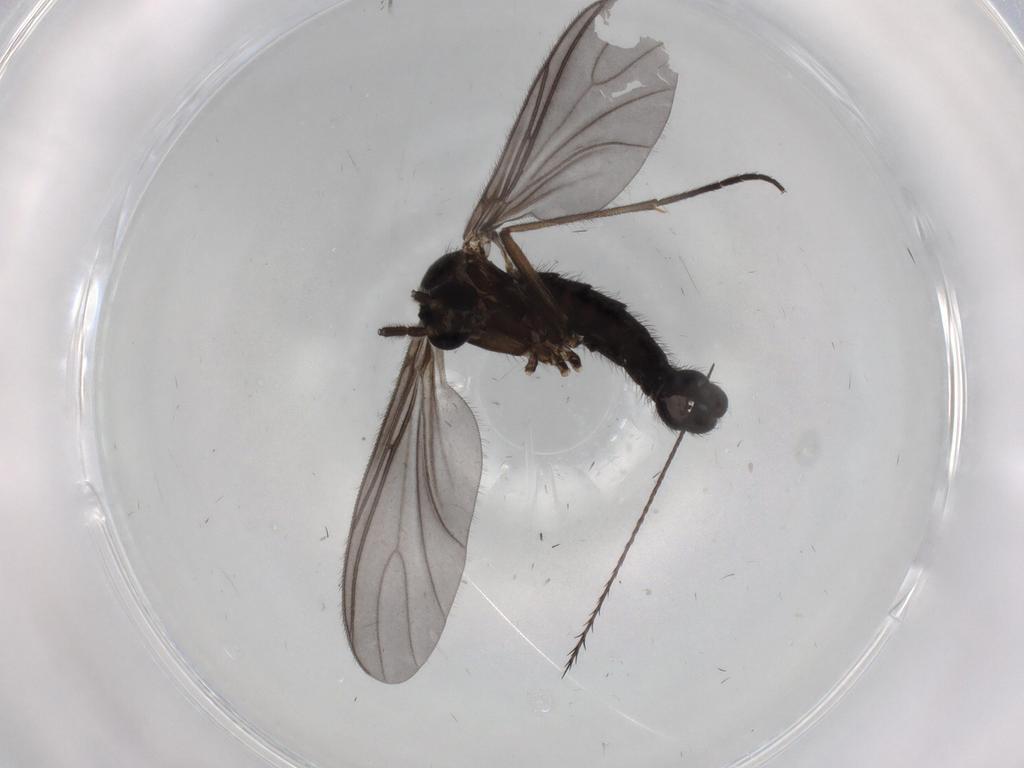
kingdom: Animalia
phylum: Arthropoda
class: Insecta
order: Diptera
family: Sciaridae
